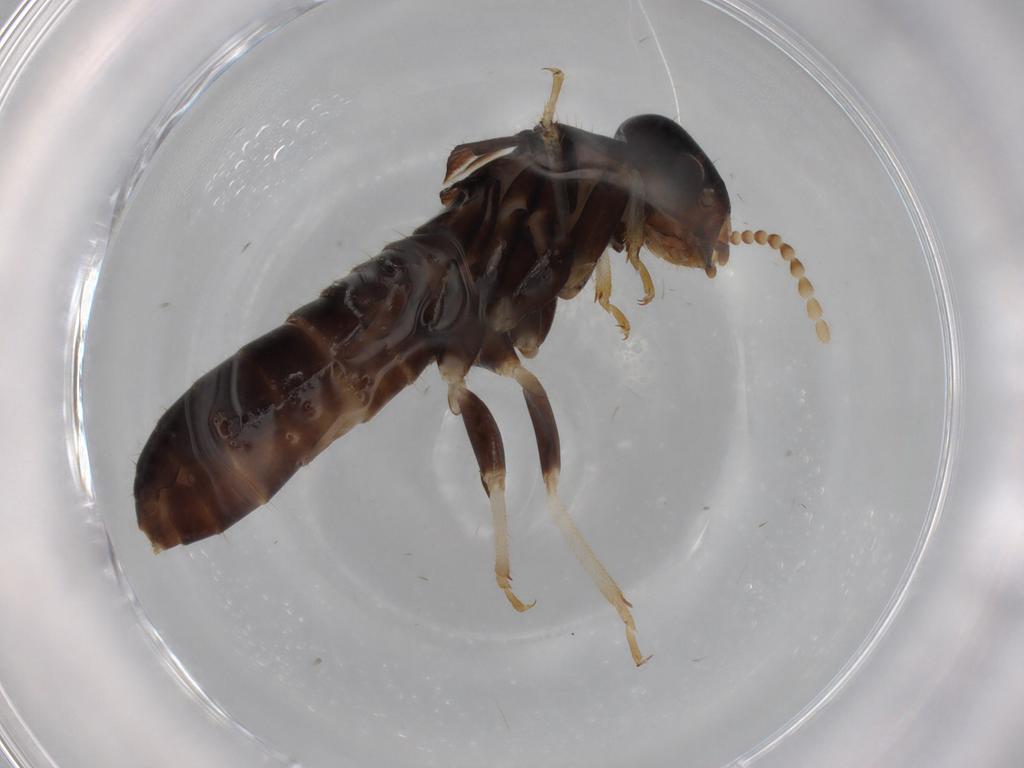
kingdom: Animalia
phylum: Arthropoda
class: Insecta
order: Blattodea
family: Kalotermitidae
